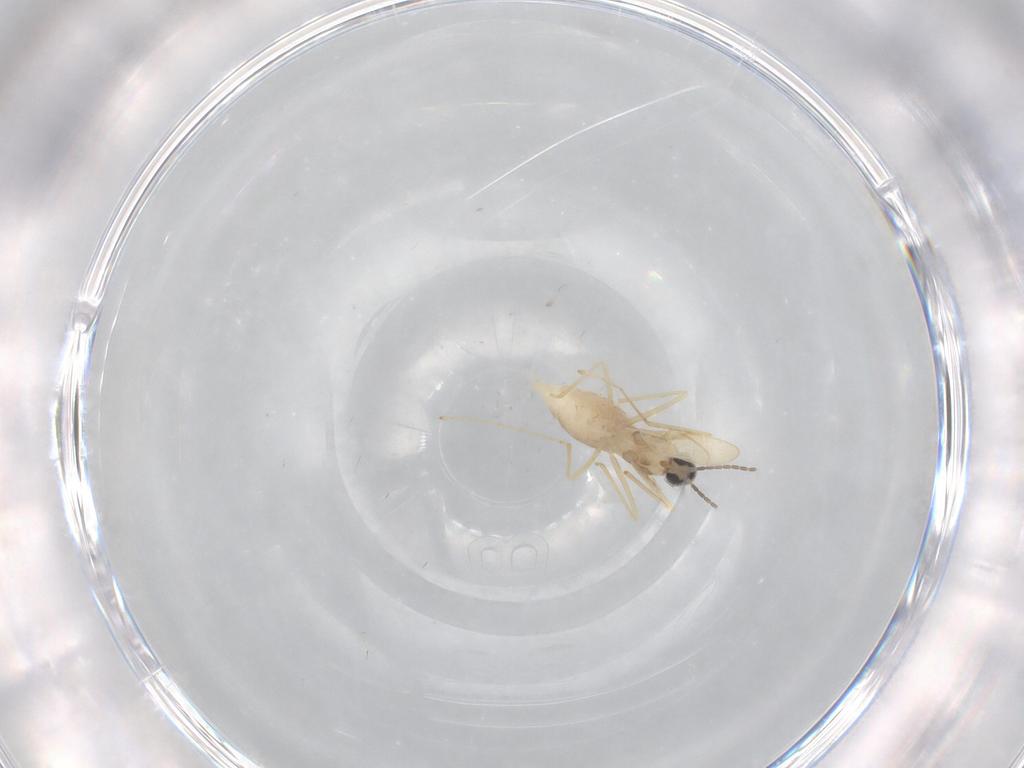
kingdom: Animalia
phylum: Arthropoda
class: Insecta
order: Diptera
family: Cecidomyiidae
